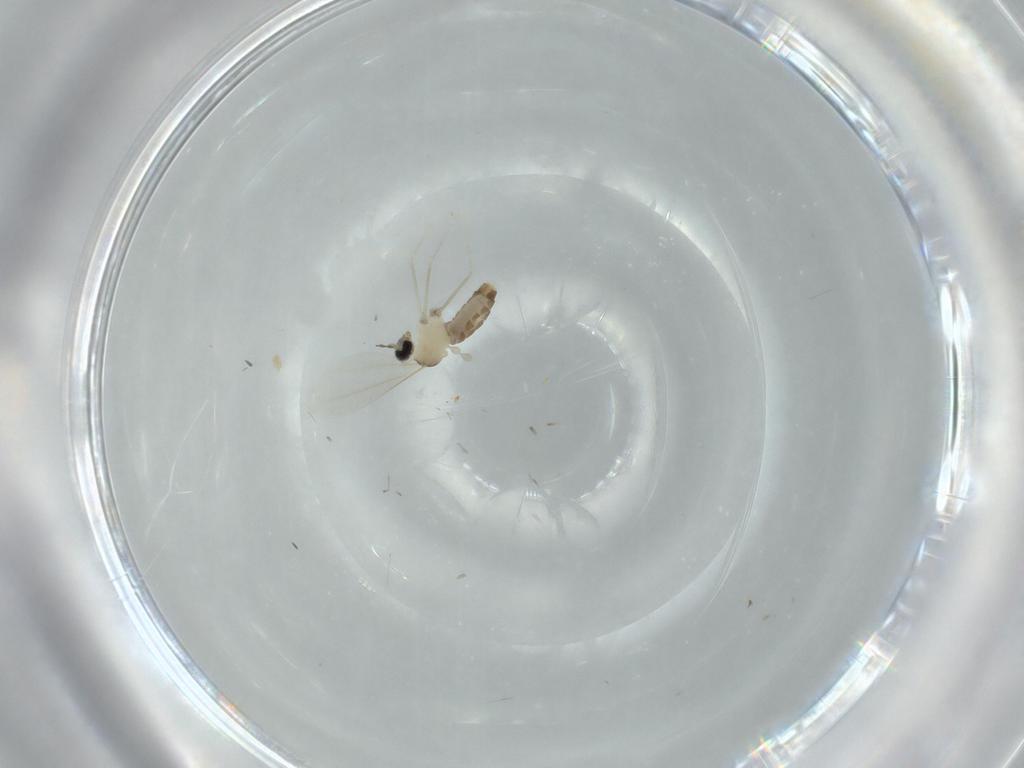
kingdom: Animalia
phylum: Arthropoda
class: Insecta
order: Diptera
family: Cecidomyiidae
